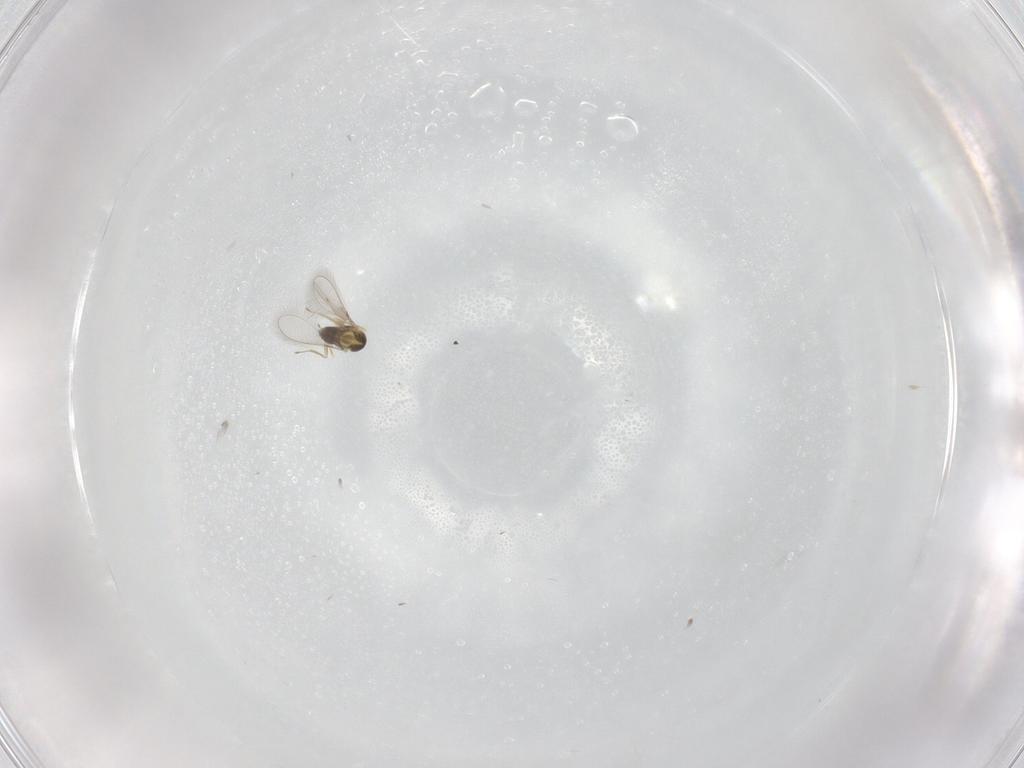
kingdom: Animalia
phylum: Arthropoda
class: Insecta
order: Hymenoptera
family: Mymaridae
